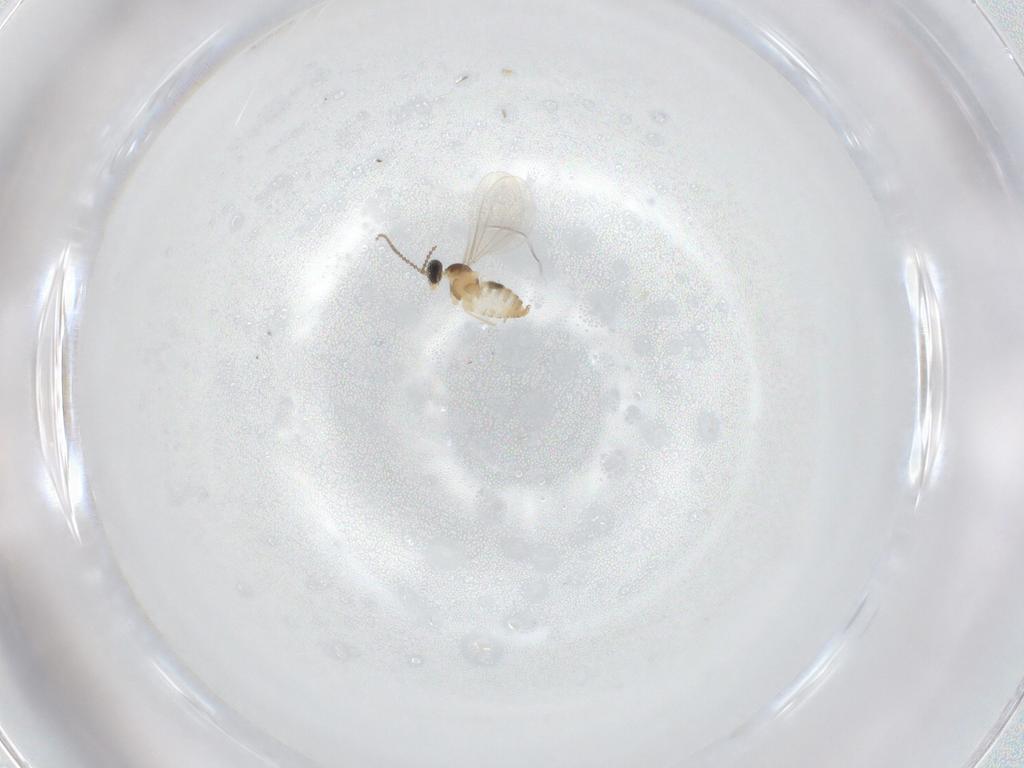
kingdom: Animalia
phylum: Arthropoda
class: Insecta
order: Diptera
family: Cecidomyiidae
